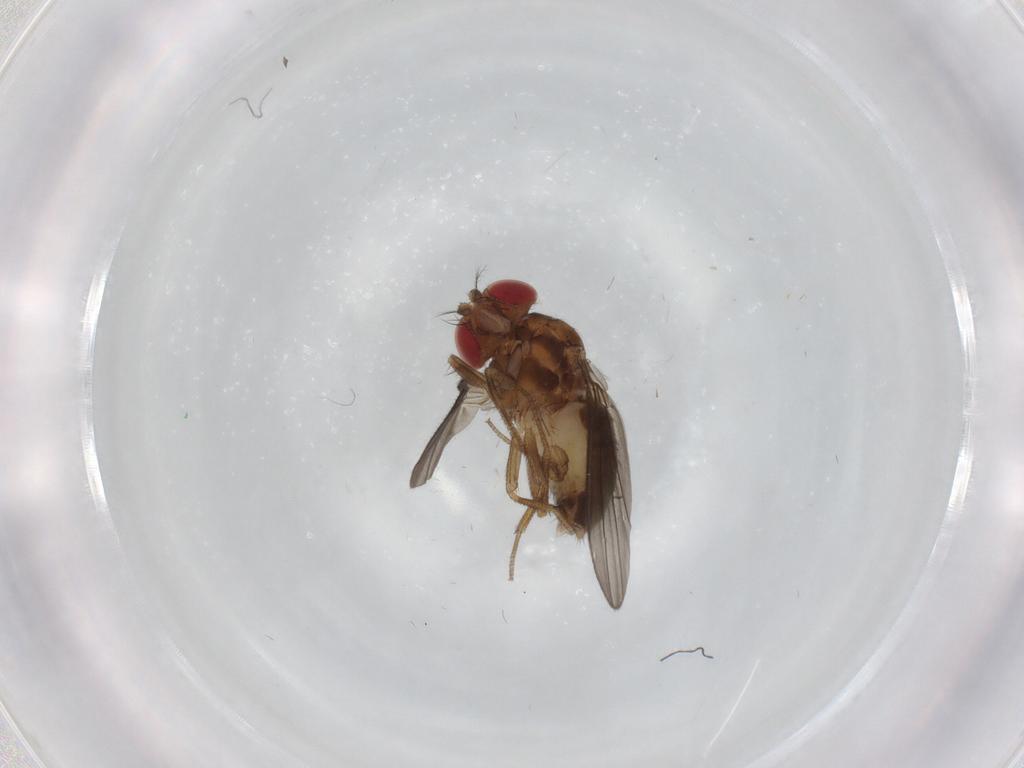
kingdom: Animalia
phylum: Arthropoda
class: Insecta
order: Diptera
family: Drosophilidae
